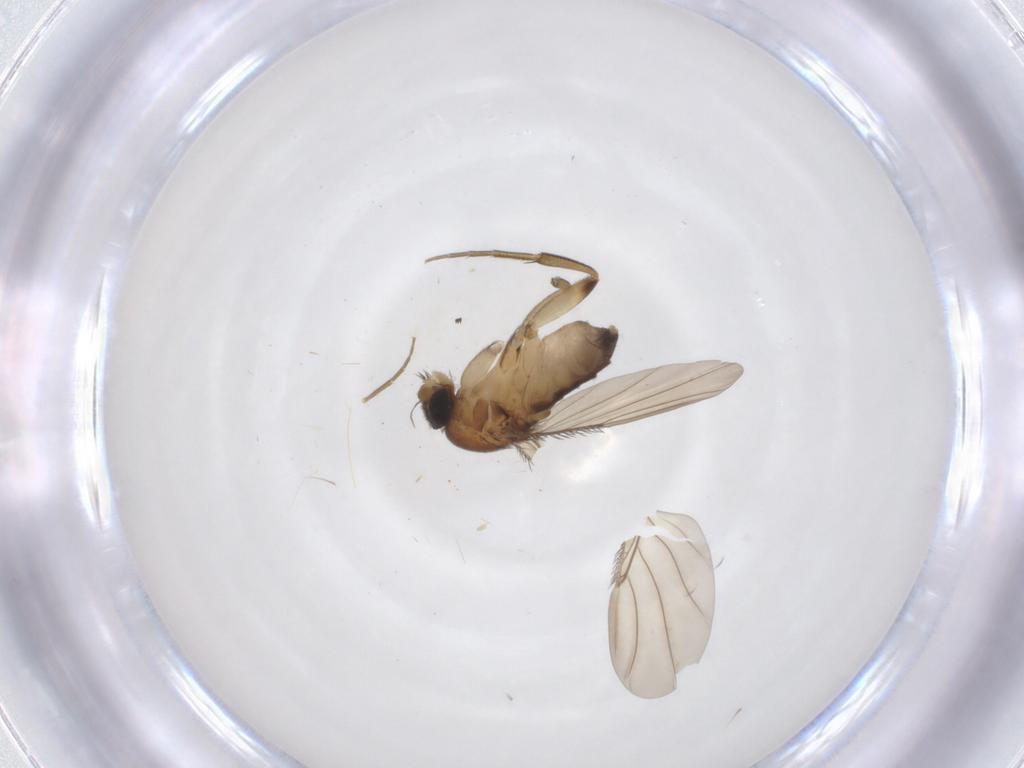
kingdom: Animalia
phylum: Arthropoda
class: Insecta
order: Diptera
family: Phoridae
